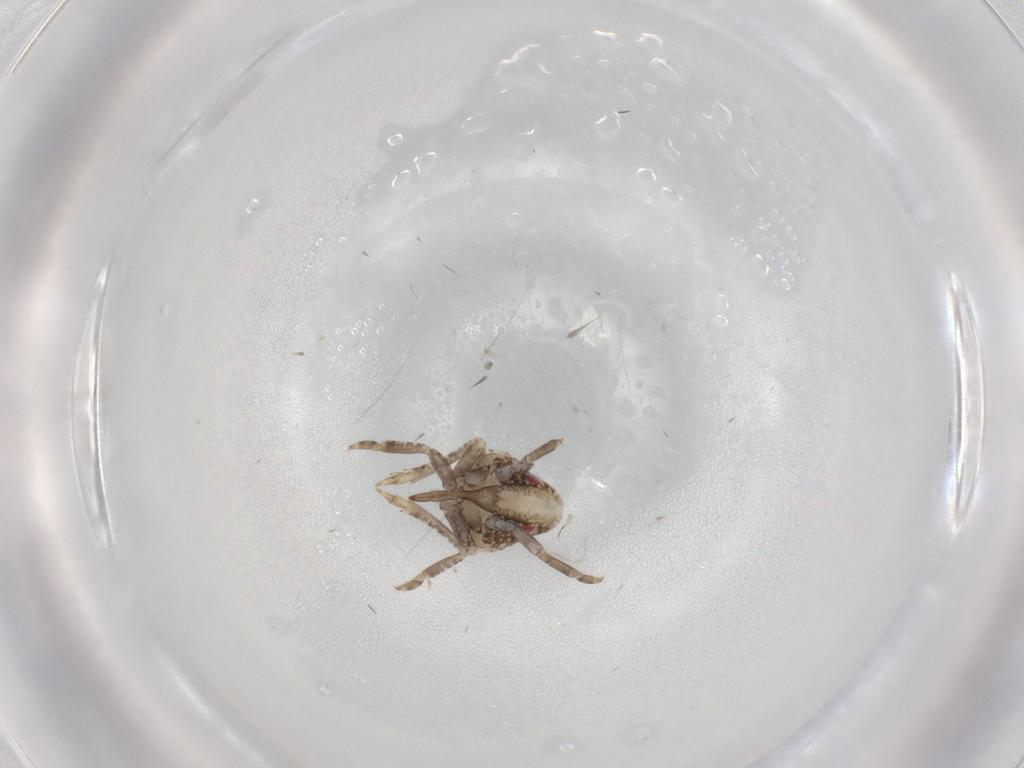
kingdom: Animalia
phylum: Arthropoda
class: Insecta
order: Hemiptera
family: Acanaloniidae
